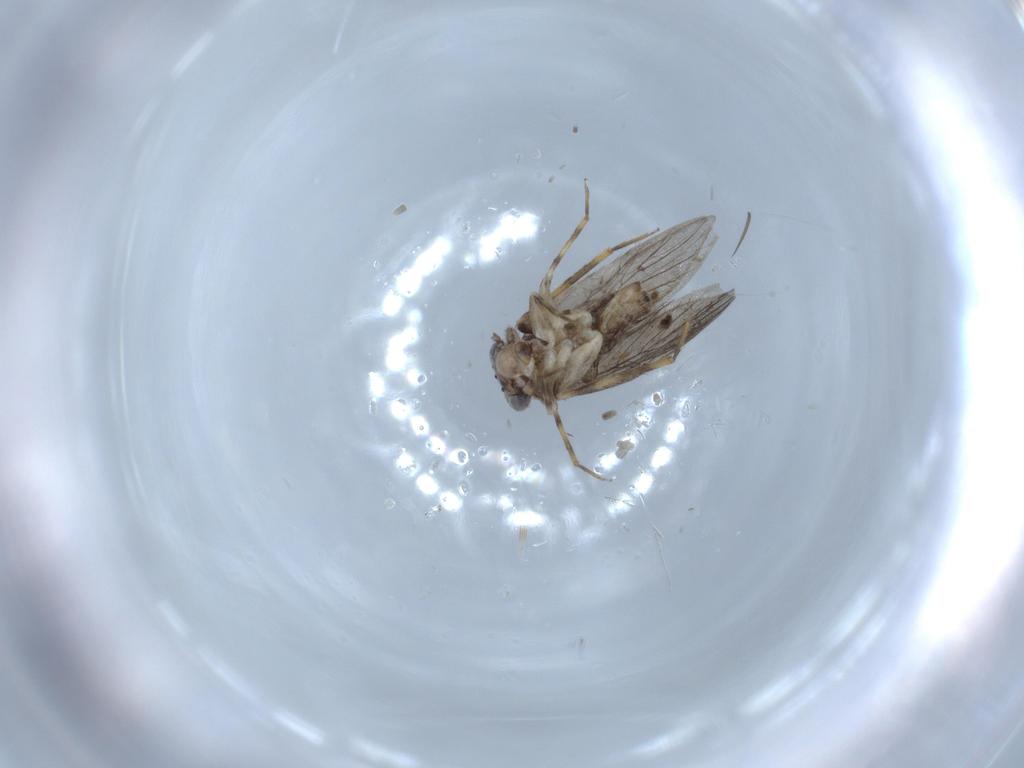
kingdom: Animalia
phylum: Arthropoda
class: Insecta
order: Psocodea
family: Lepidopsocidae
